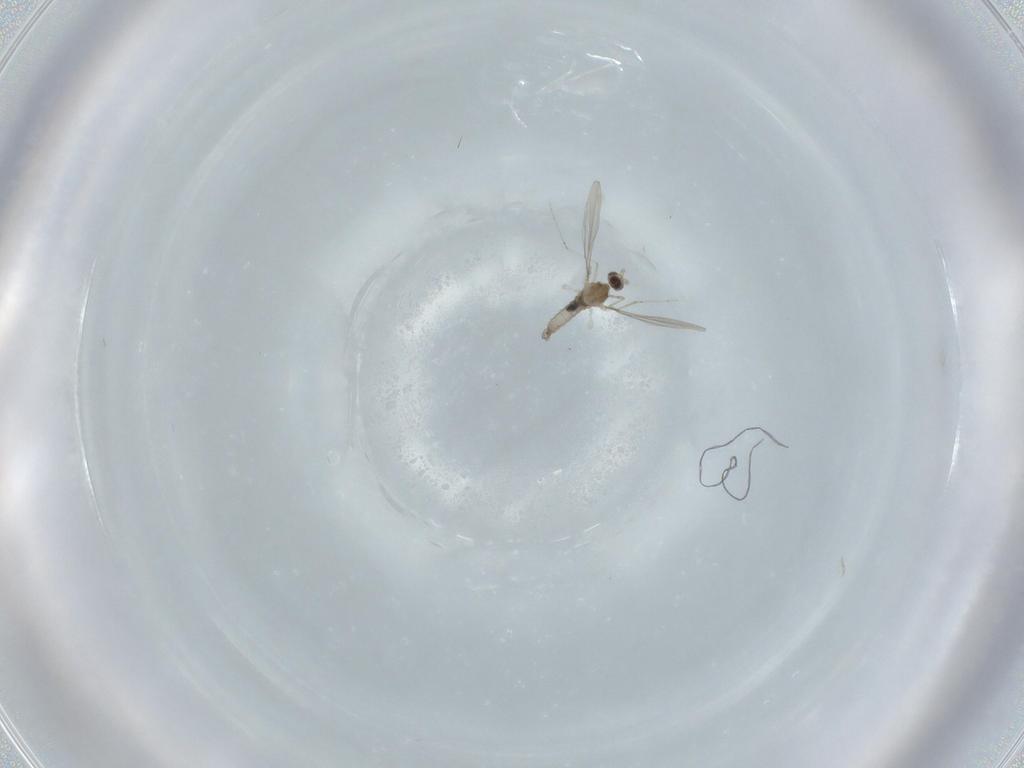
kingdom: Animalia
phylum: Arthropoda
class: Insecta
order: Diptera
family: Cecidomyiidae
